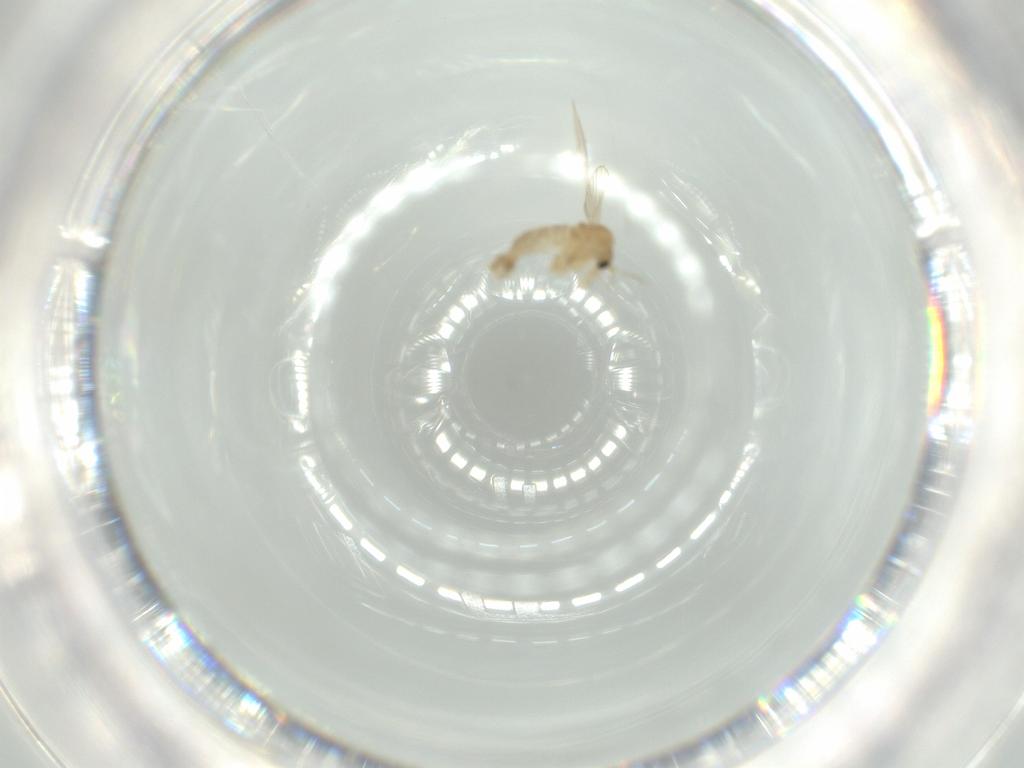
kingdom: Animalia
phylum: Arthropoda
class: Insecta
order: Diptera
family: Psychodidae
